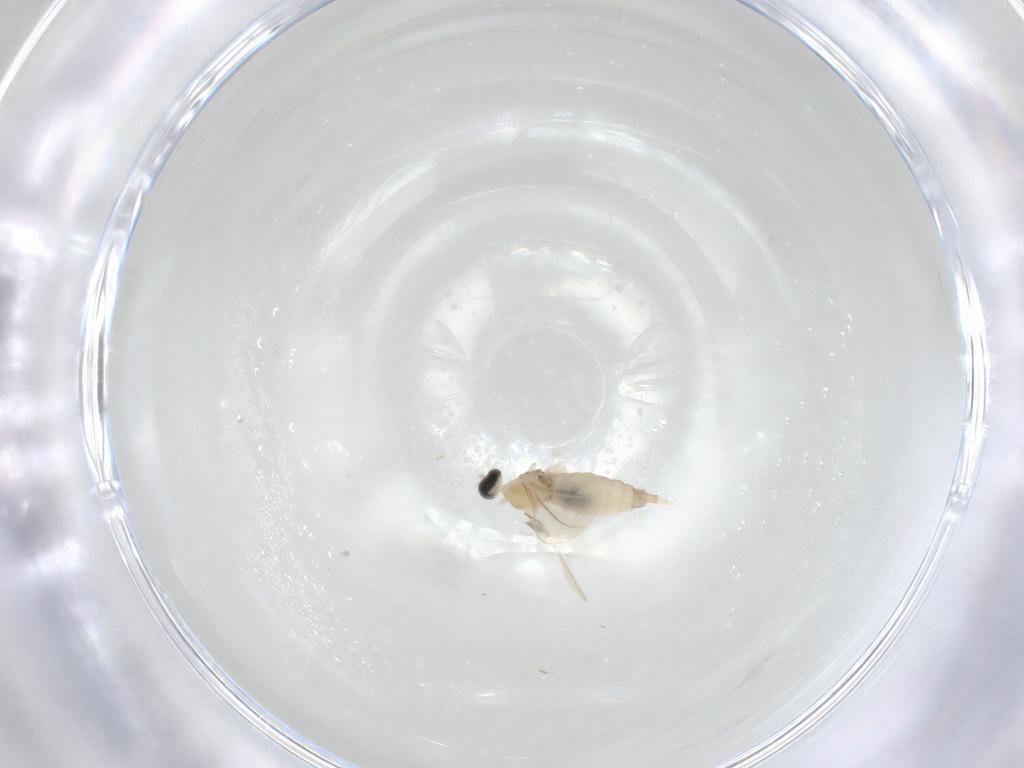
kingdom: Animalia
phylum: Arthropoda
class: Insecta
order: Diptera
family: Cecidomyiidae
